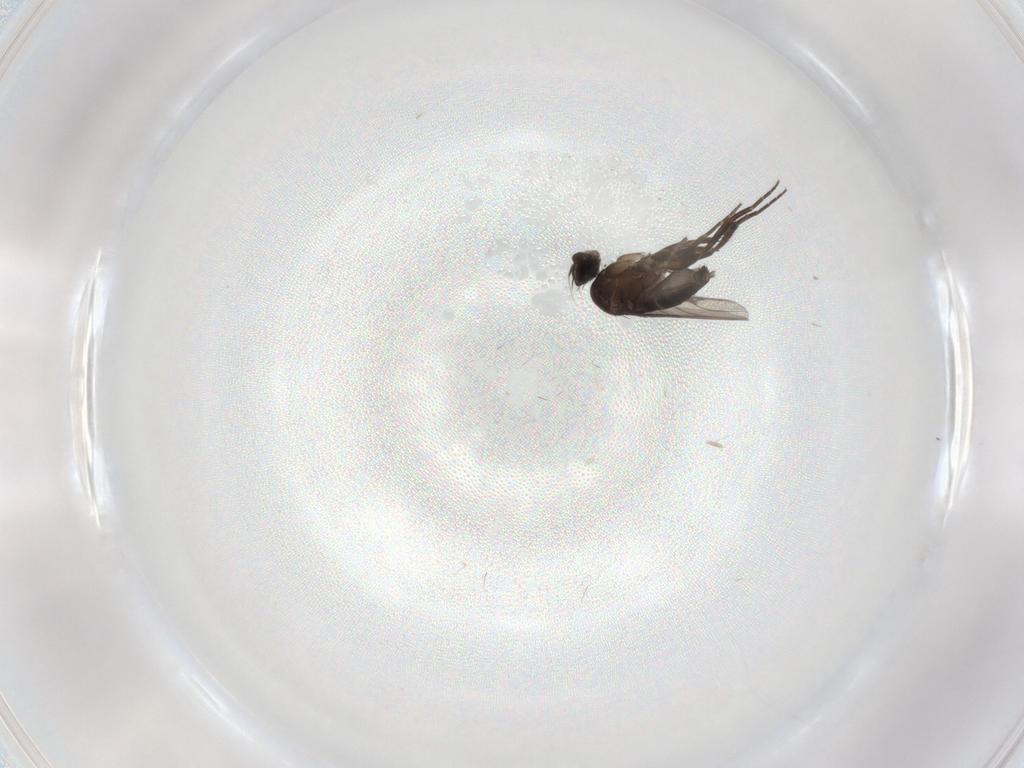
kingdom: Animalia
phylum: Arthropoda
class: Insecta
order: Diptera
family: Phoridae
